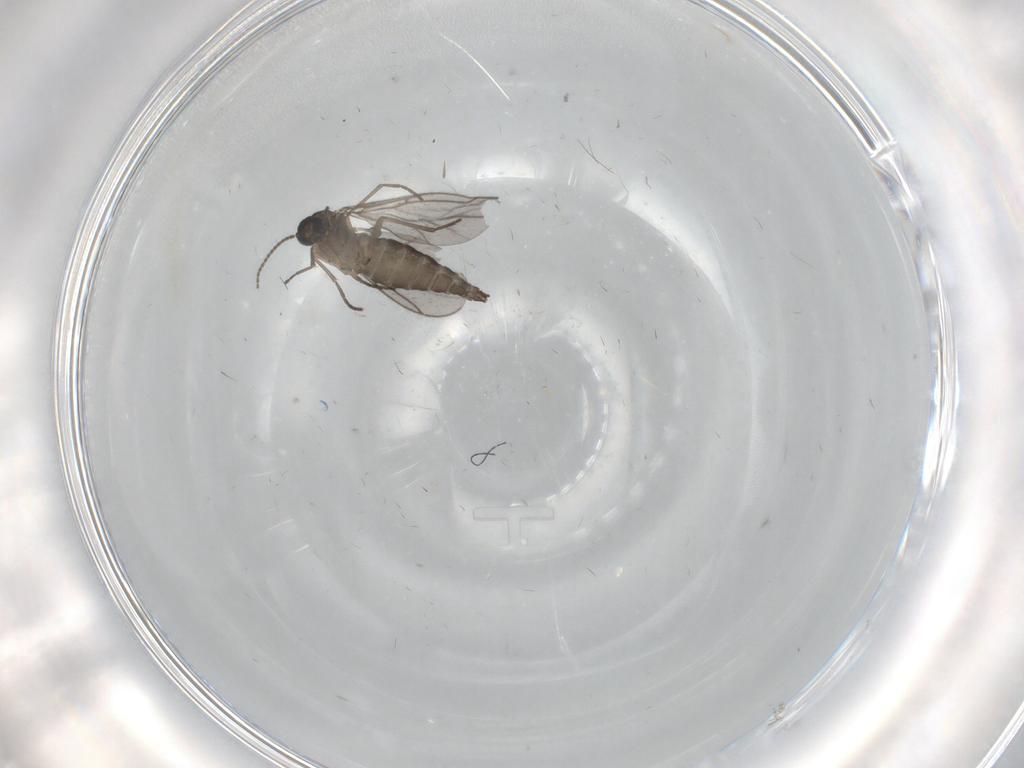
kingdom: Animalia
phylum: Arthropoda
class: Insecta
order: Diptera
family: Sciaridae
